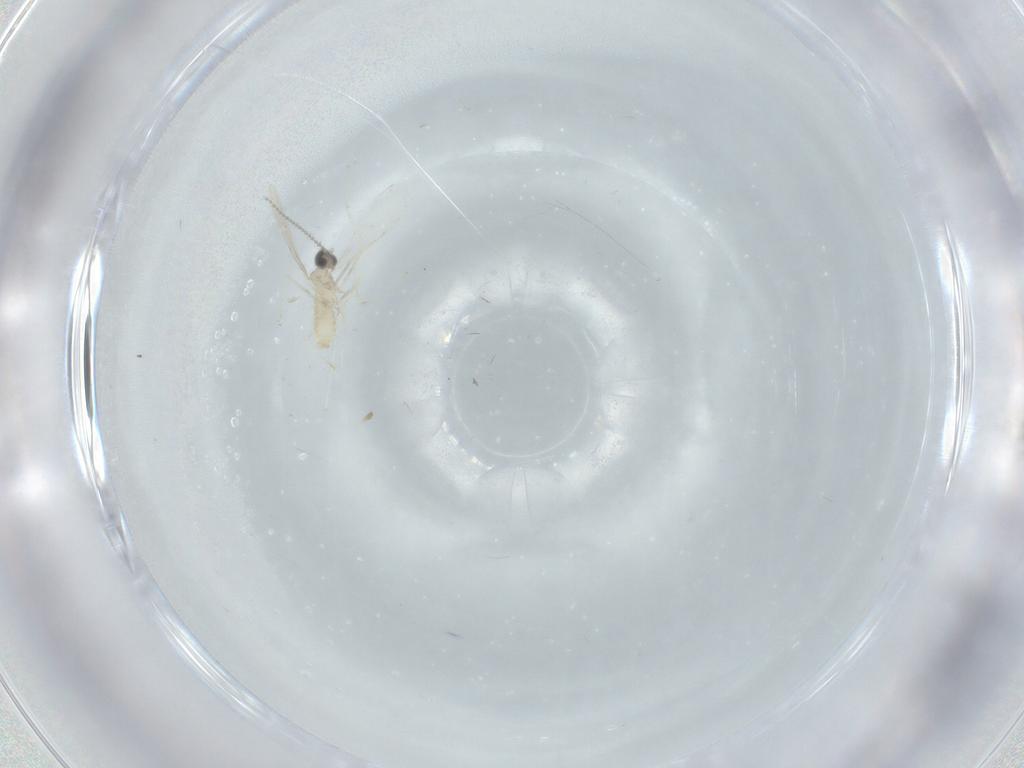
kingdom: Animalia
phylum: Arthropoda
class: Insecta
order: Diptera
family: Cecidomyiidae
